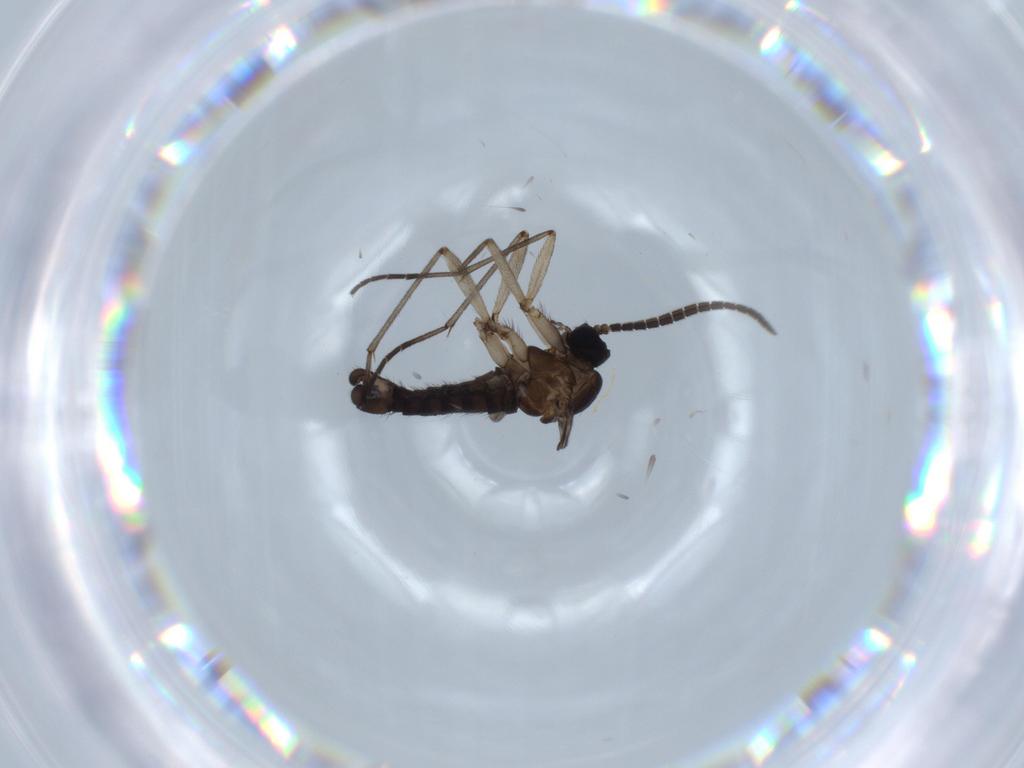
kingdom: Animalia
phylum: Arthropoda
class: Insecta
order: Diptera
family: Sciaridae
